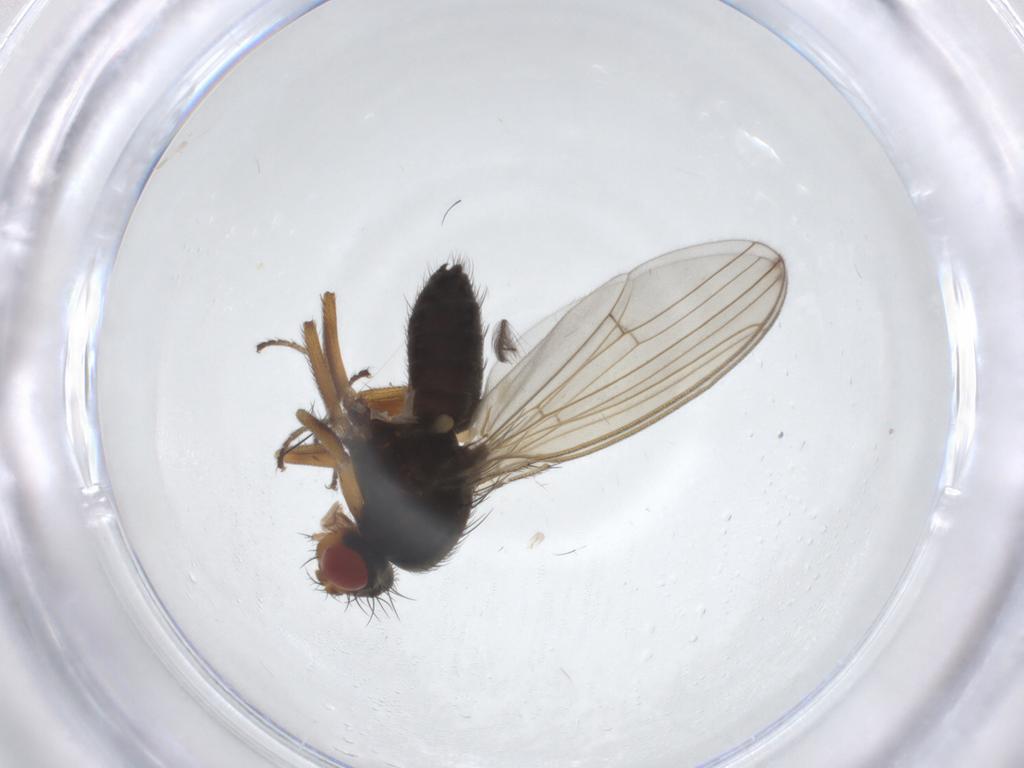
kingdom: Animalia
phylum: Arthropoda
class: Insecta
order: Diptera
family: Drosophilidae
